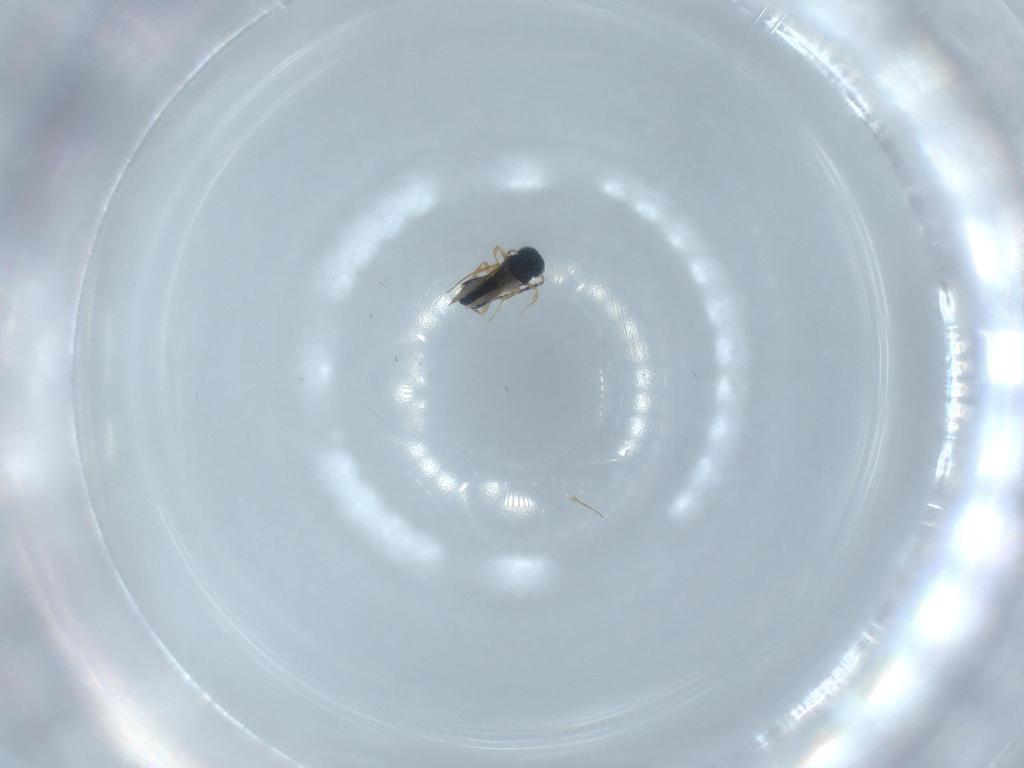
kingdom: Animalia
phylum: Arthropoda
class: Insecta
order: Hymenoptera
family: Scelionidae
